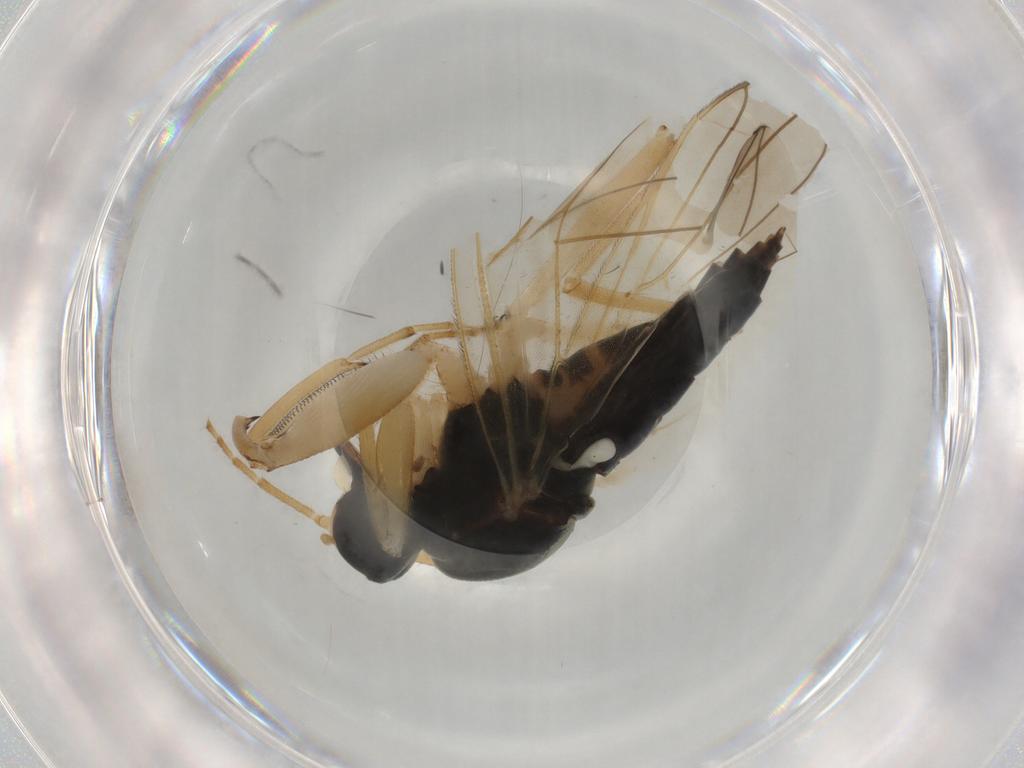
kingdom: Animalia
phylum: Arthropoda
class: Insecta
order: Diptera
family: Hybotidae
